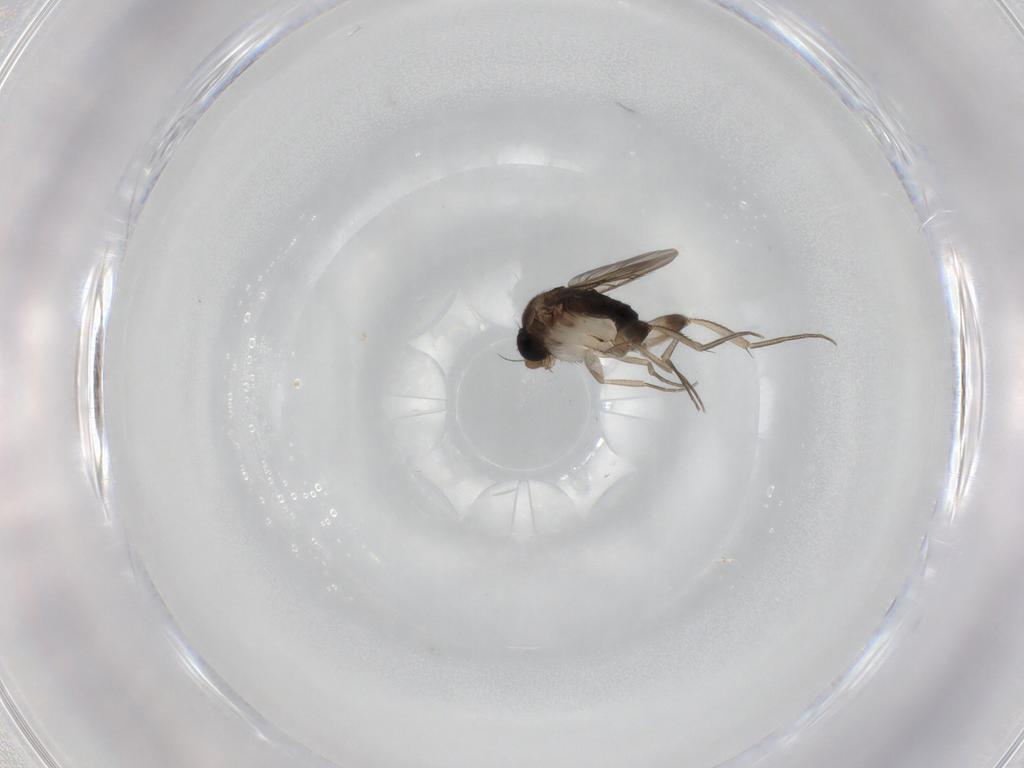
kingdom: Animalia
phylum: Arthropoda
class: Insecta
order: Diptera
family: Phoridae
